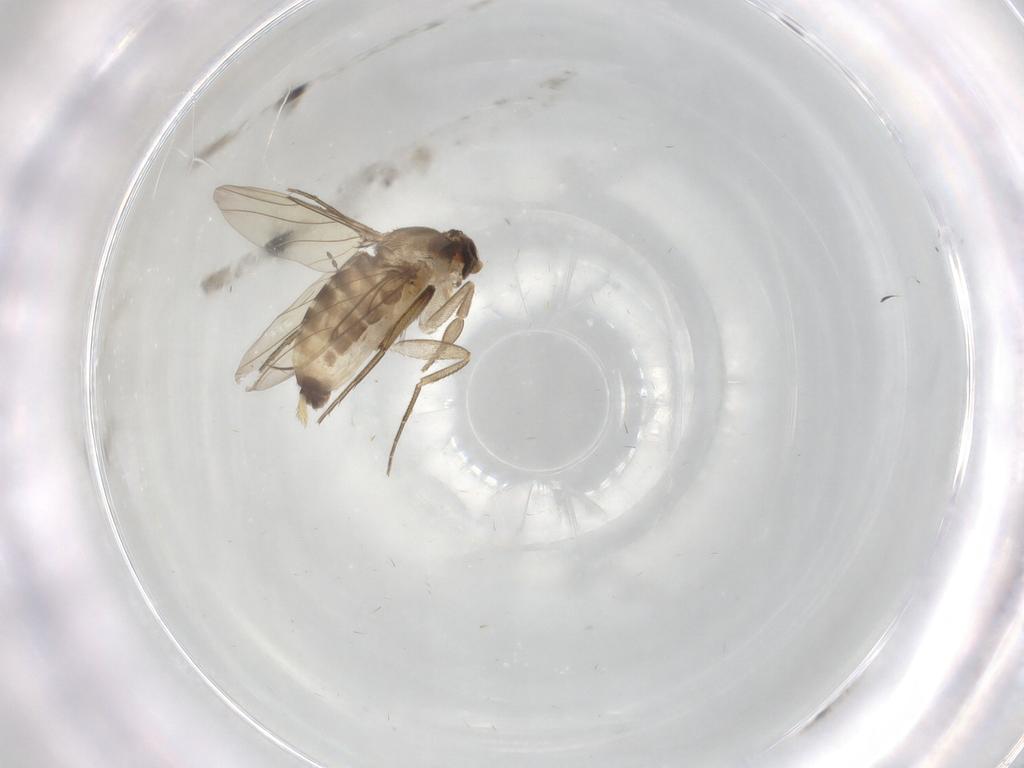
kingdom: Animalia
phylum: Arthropoda
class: Insecta
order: Diptera
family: Cecidomyiidae
